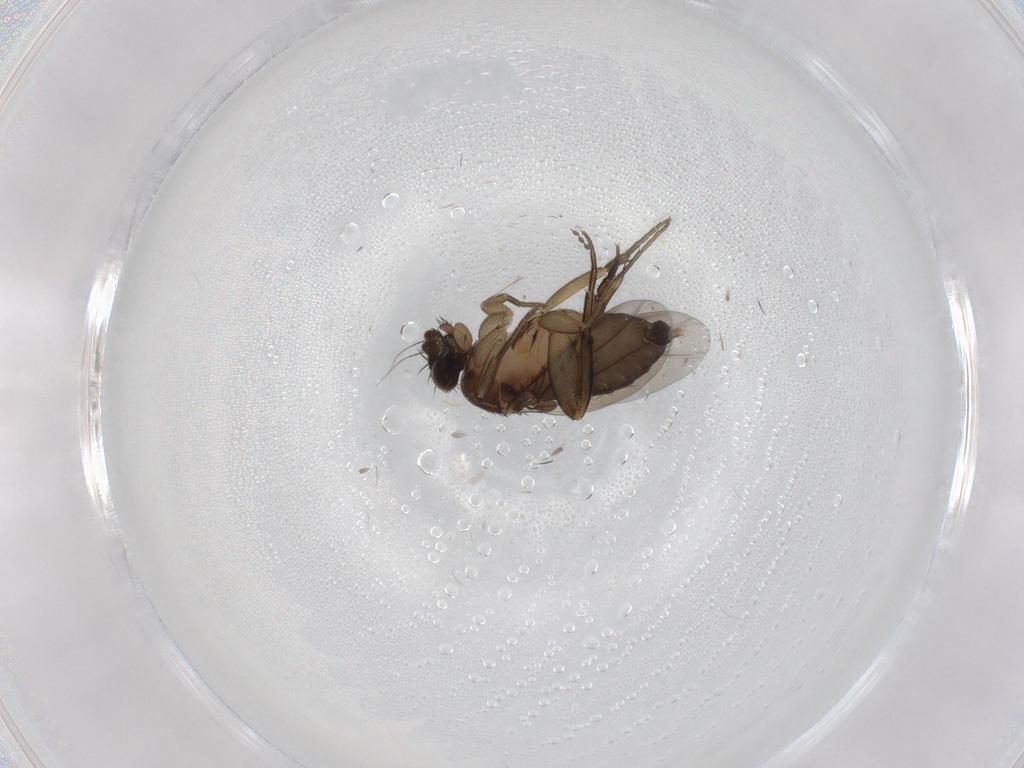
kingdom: Animalia
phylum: Arthropoda
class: Insecta
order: Diptera
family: Phoridae
